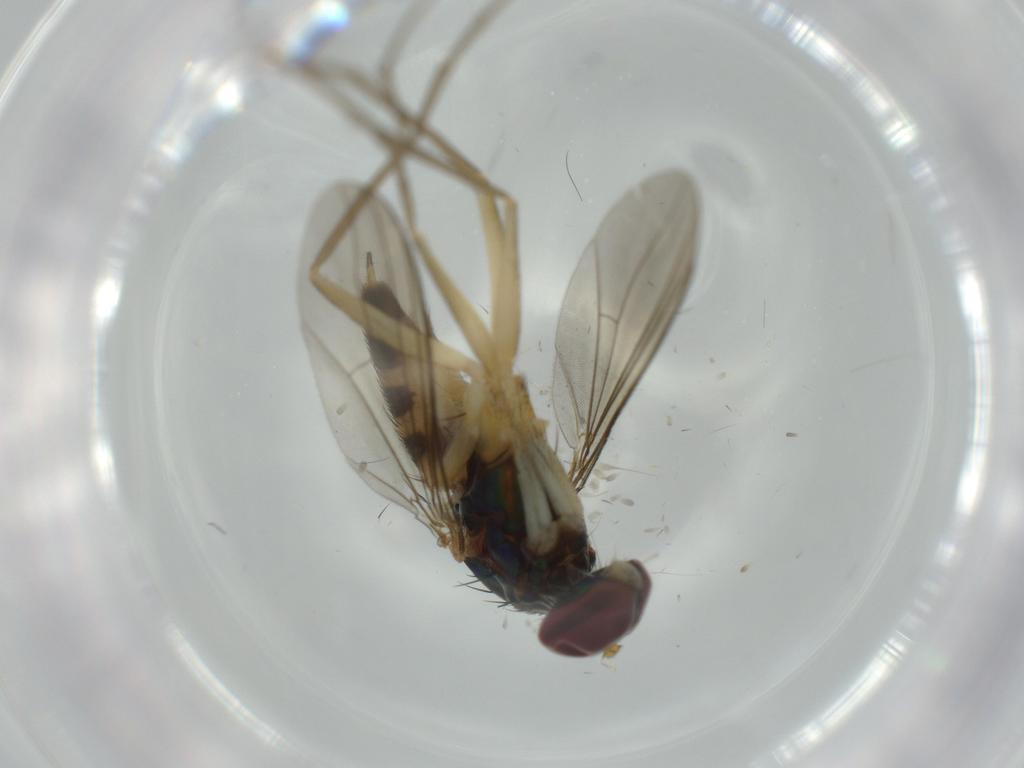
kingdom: Animalia
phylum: Arthropoda
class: Insecta
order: Diptera
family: Dolichopodidae
